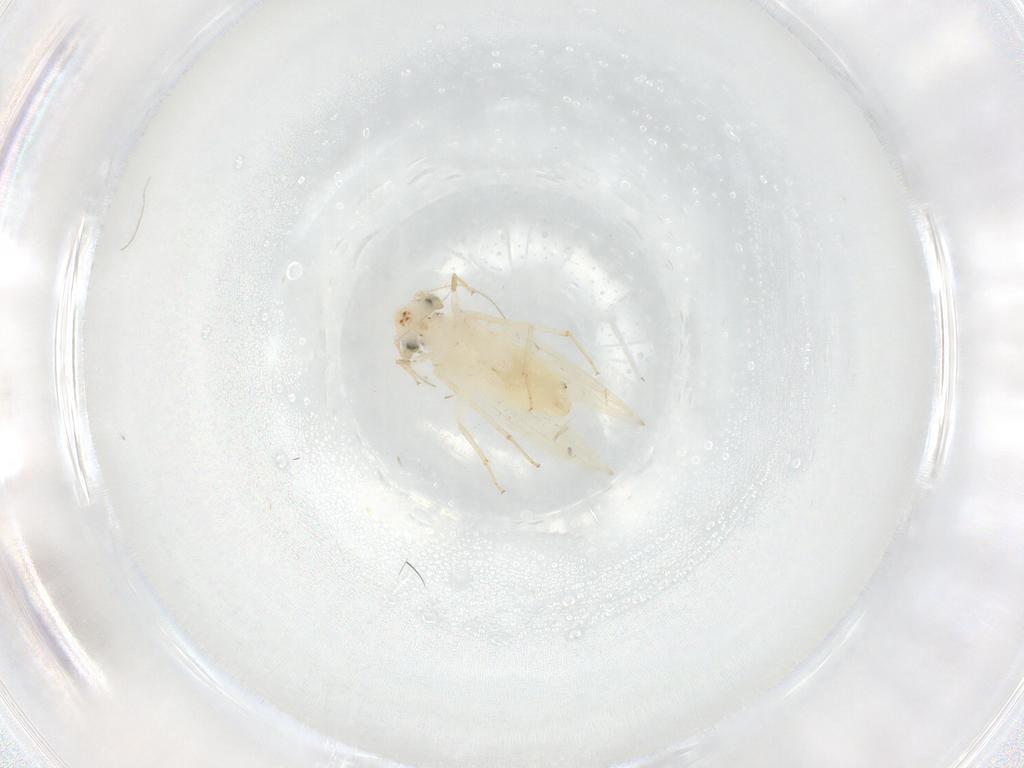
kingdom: Animalia
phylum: Arthropoda
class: Insecta
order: Psocodea
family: Lepidopsocidae
